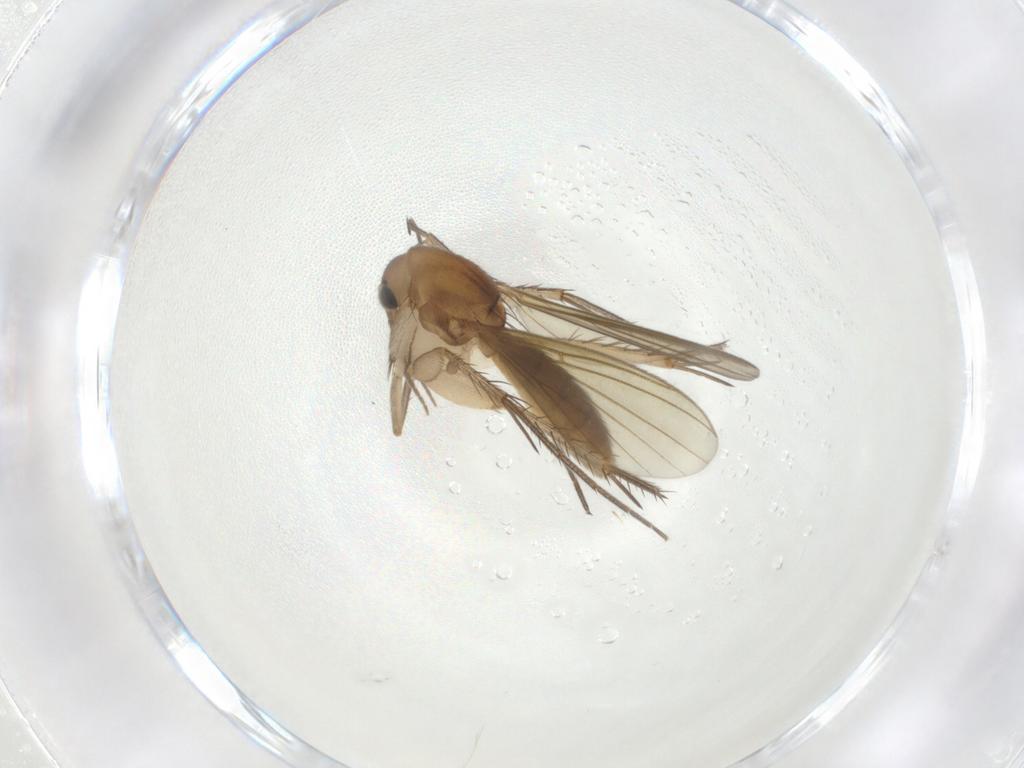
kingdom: Animalia
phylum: Arthropoda
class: Insecta
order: Diptera
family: Mycetophilidae
